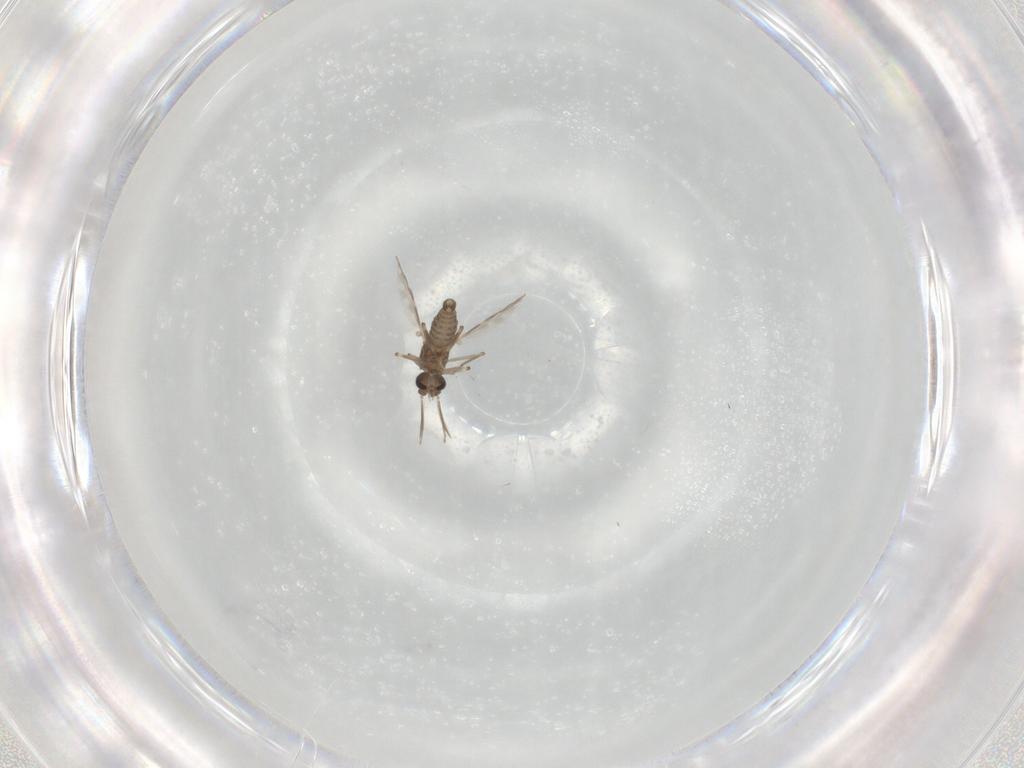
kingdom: Animalia
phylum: Arthropoda
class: Insecta
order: Diptera
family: Ceratopogonidae
